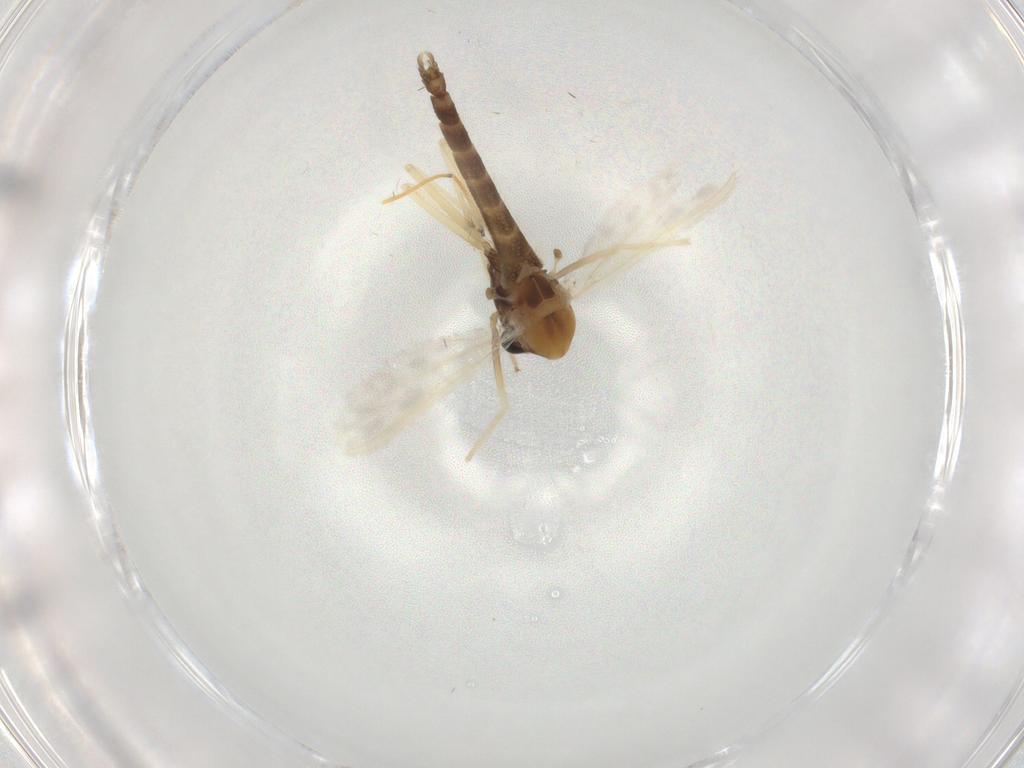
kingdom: Animalia
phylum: Arthropoda
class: Insecta
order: Diptera
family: Chironomidae
